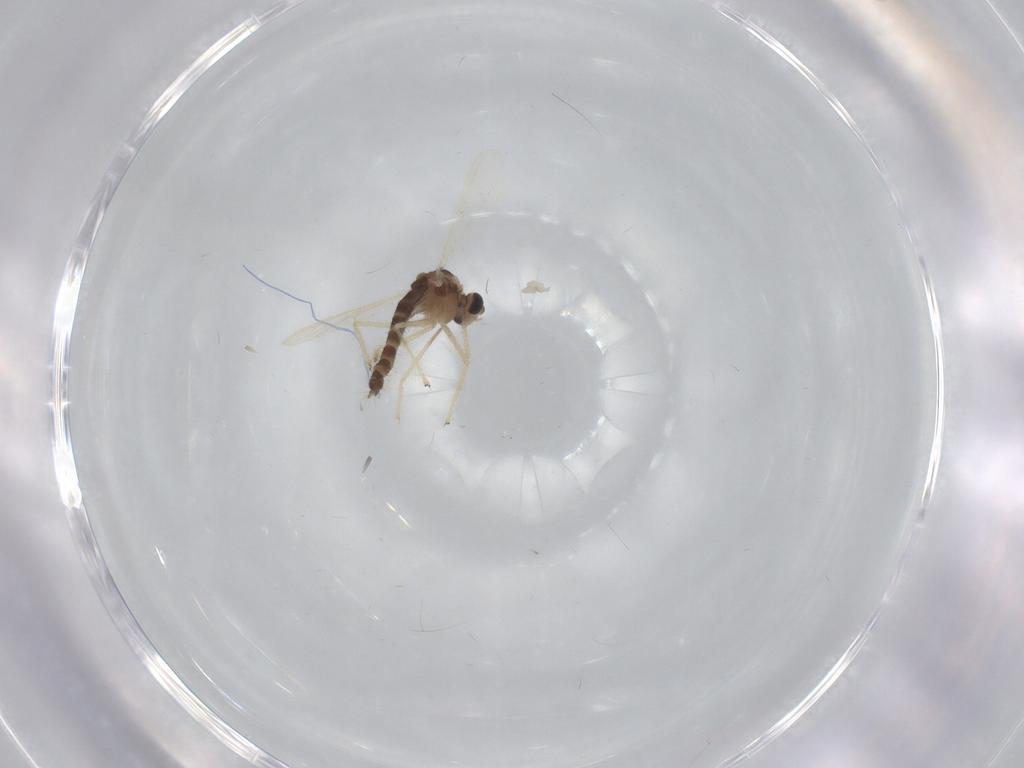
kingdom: Animalia
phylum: Arthropoda
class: Insecta
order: Diptera
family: Chironomidae
